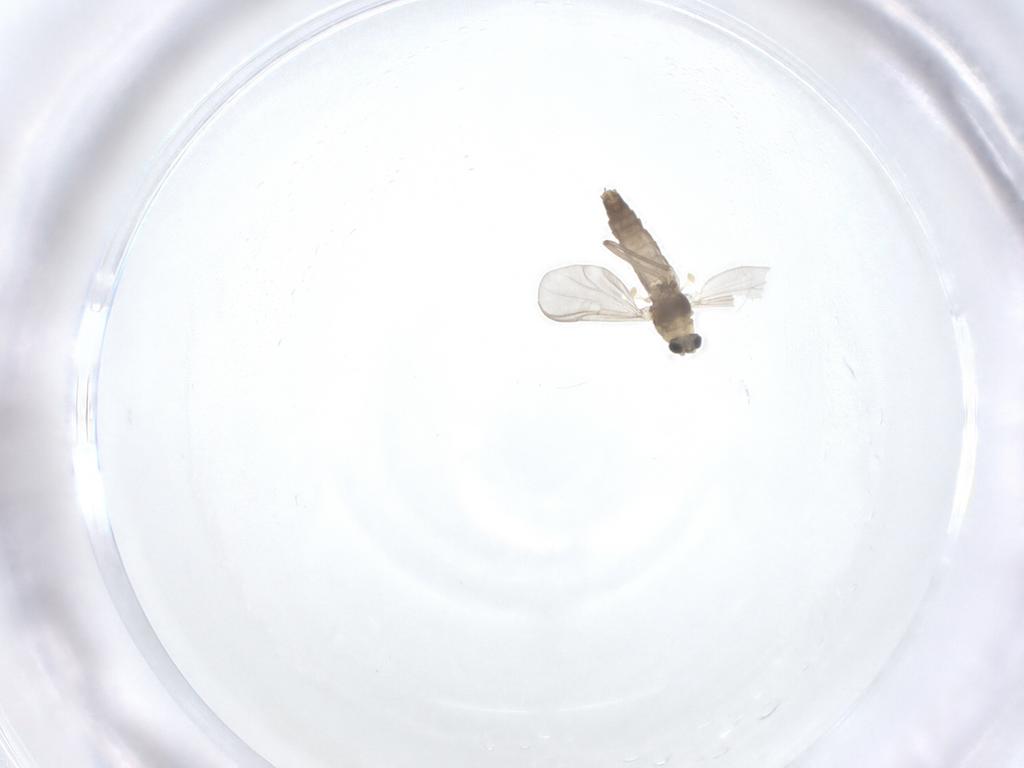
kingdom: Animalia
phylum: Arthropoda
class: Insecta
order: Diptera
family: Chironomidae
